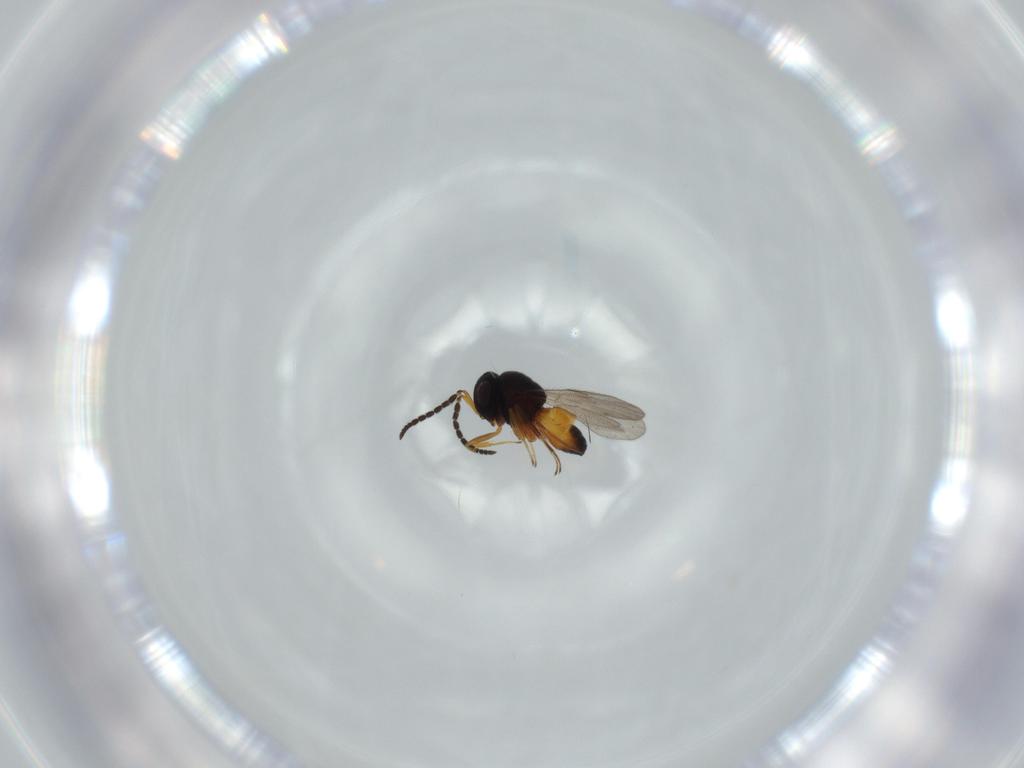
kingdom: Animalia
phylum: Arthropoda
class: Insecta
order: Hymenoptera
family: Scelionidae
